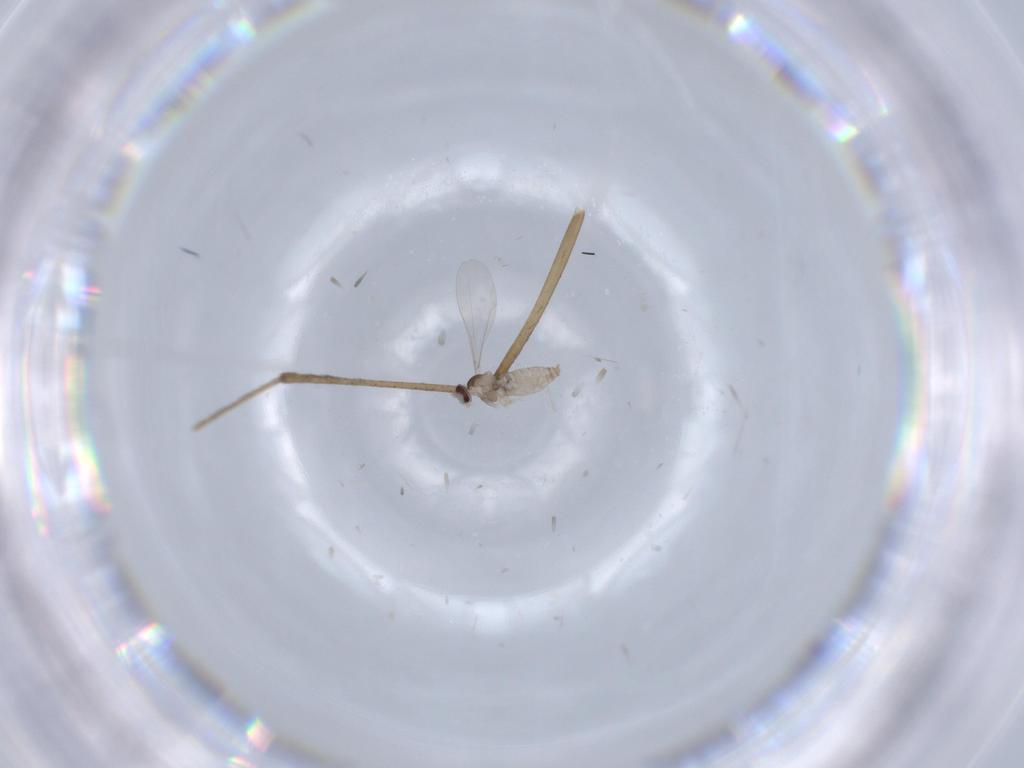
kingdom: Animalia
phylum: Arthropoda
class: Insecta
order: Diptera
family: Culicidae
